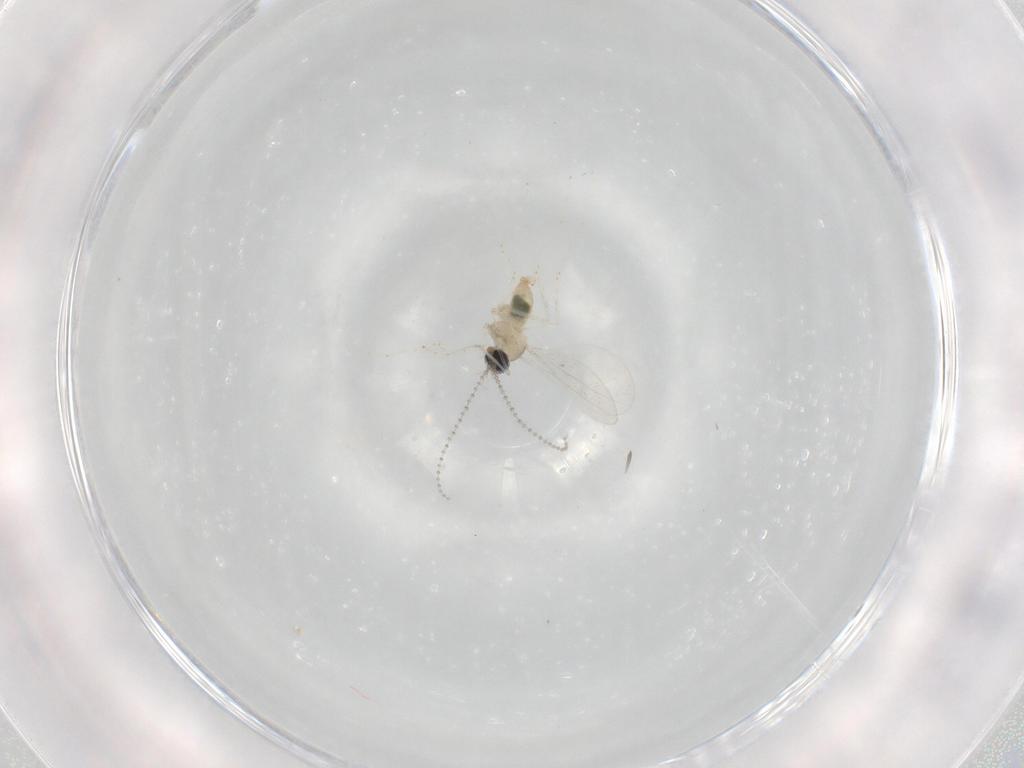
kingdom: Animalia
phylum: Arthropoda
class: Insecta
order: Diptera
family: Cecidomyiidae
